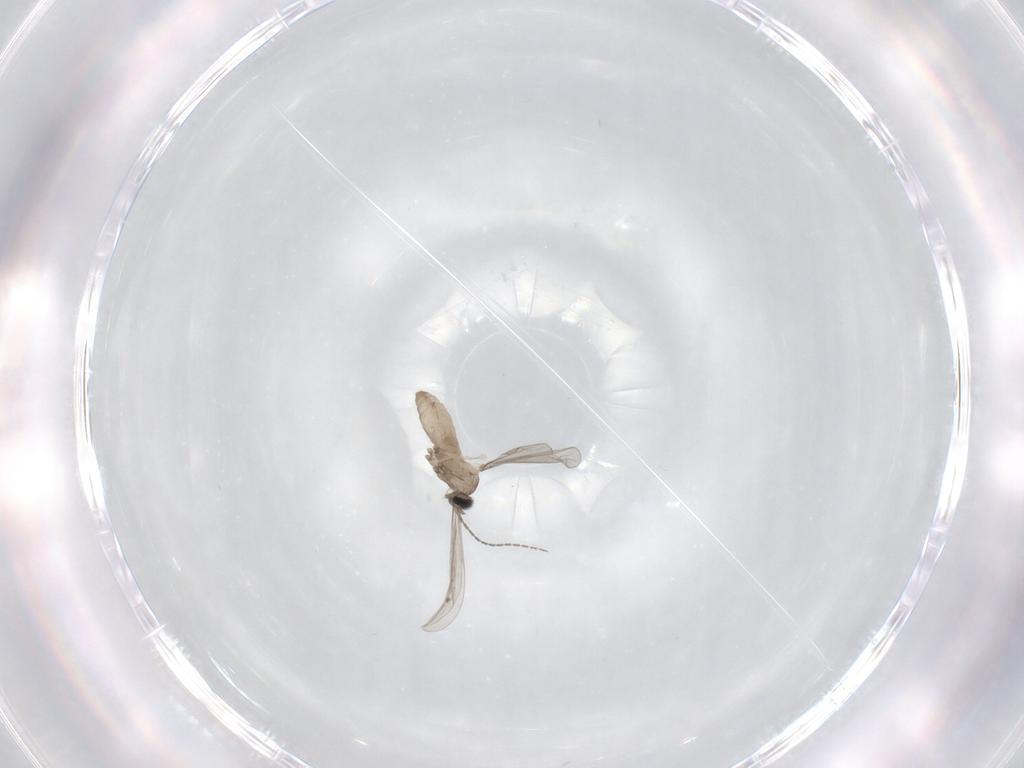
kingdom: Animalia
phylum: Arthropoda
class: Insecta
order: Diptera
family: Cecidomyiidae
